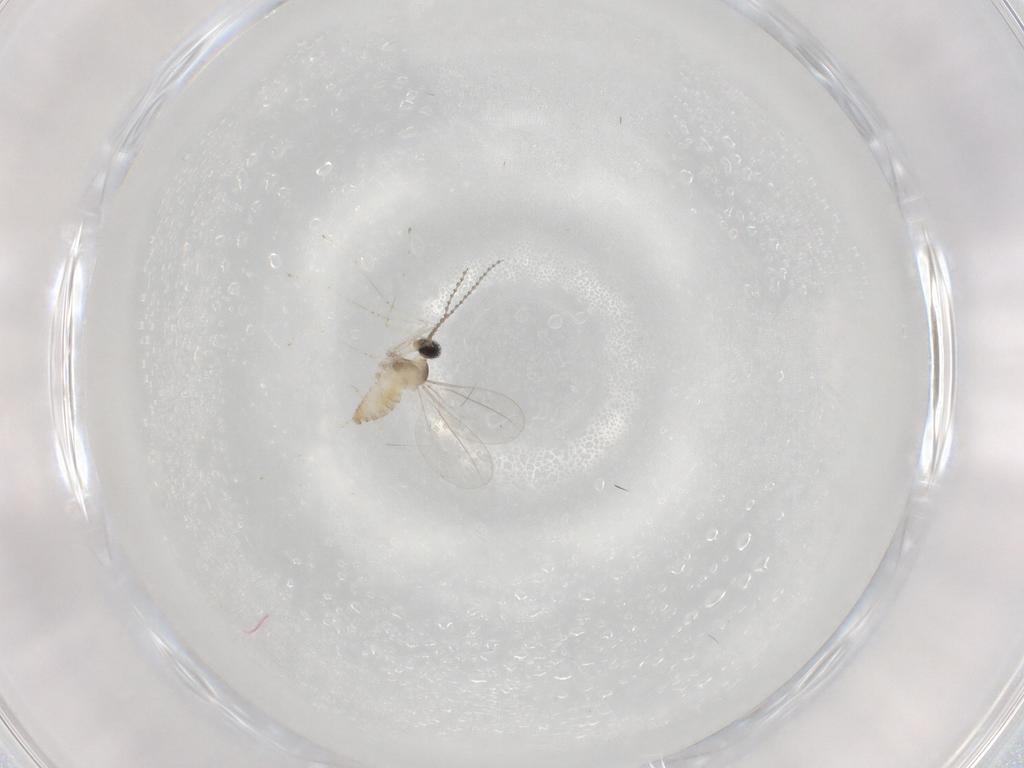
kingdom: Animalia
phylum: Arthropoda
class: Insecta
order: Diptera
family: Cecidomyiidae
